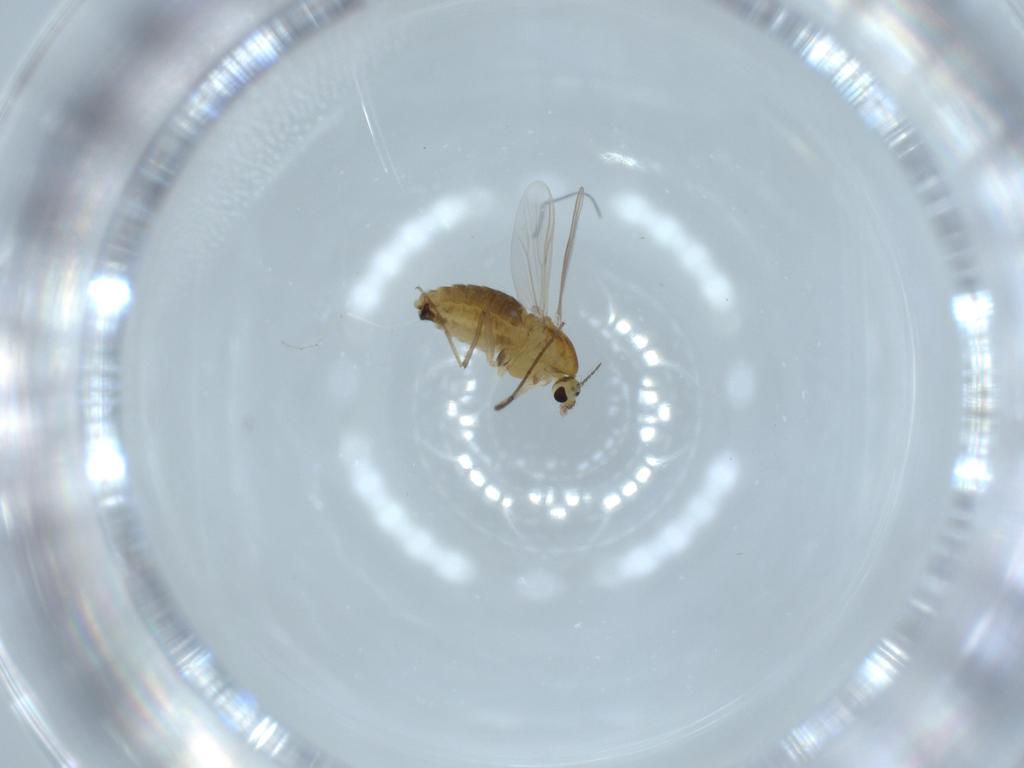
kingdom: Animalia
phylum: Arthropoda
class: Insecta
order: Diptera
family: Chironomidae
